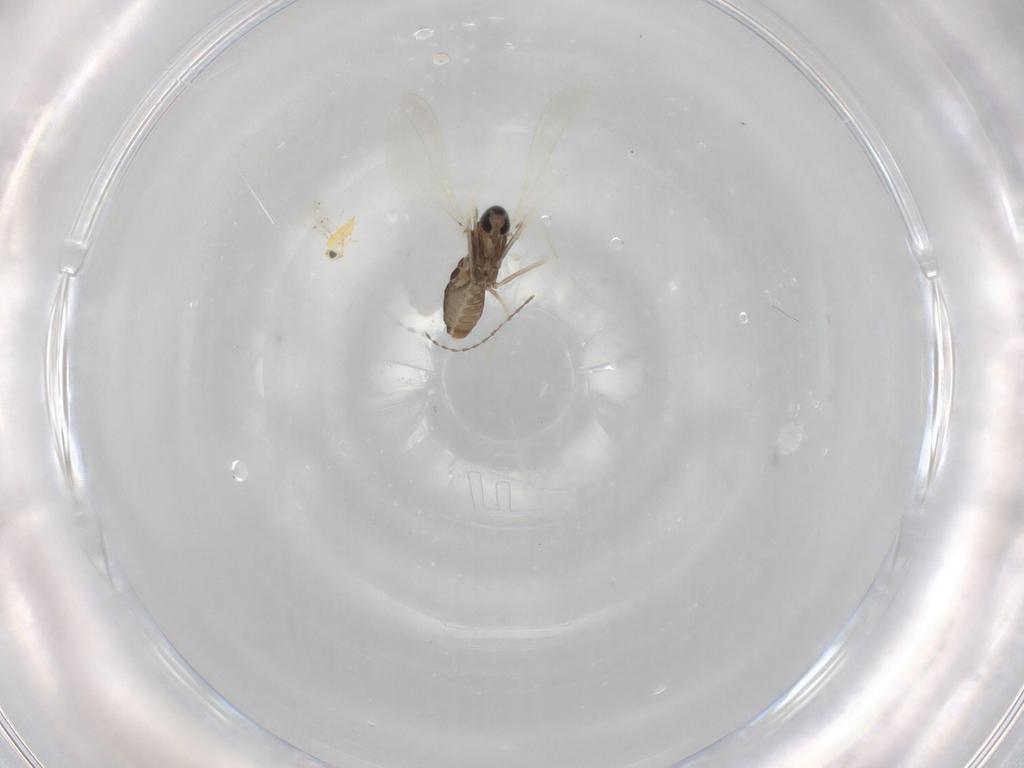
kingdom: Animalia
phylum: Arthropoda
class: Insecta
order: Diptera
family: Cecidomyiidae
